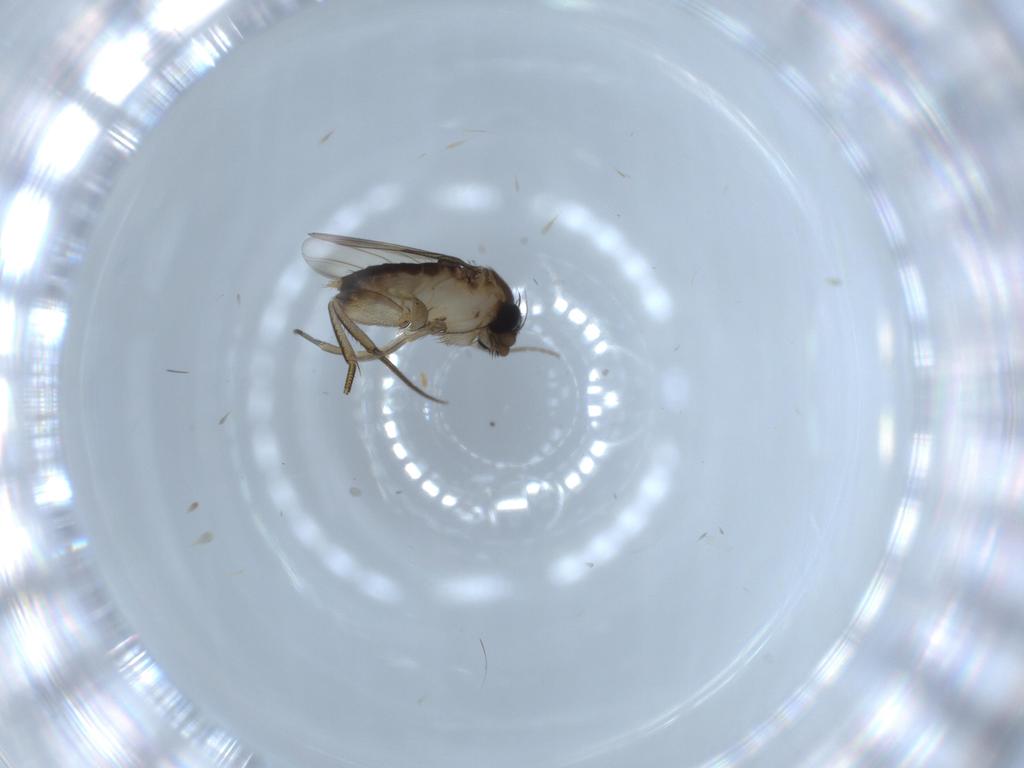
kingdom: Animalia
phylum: Arthropoda
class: Insecta
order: Diptera
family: Phoridae
